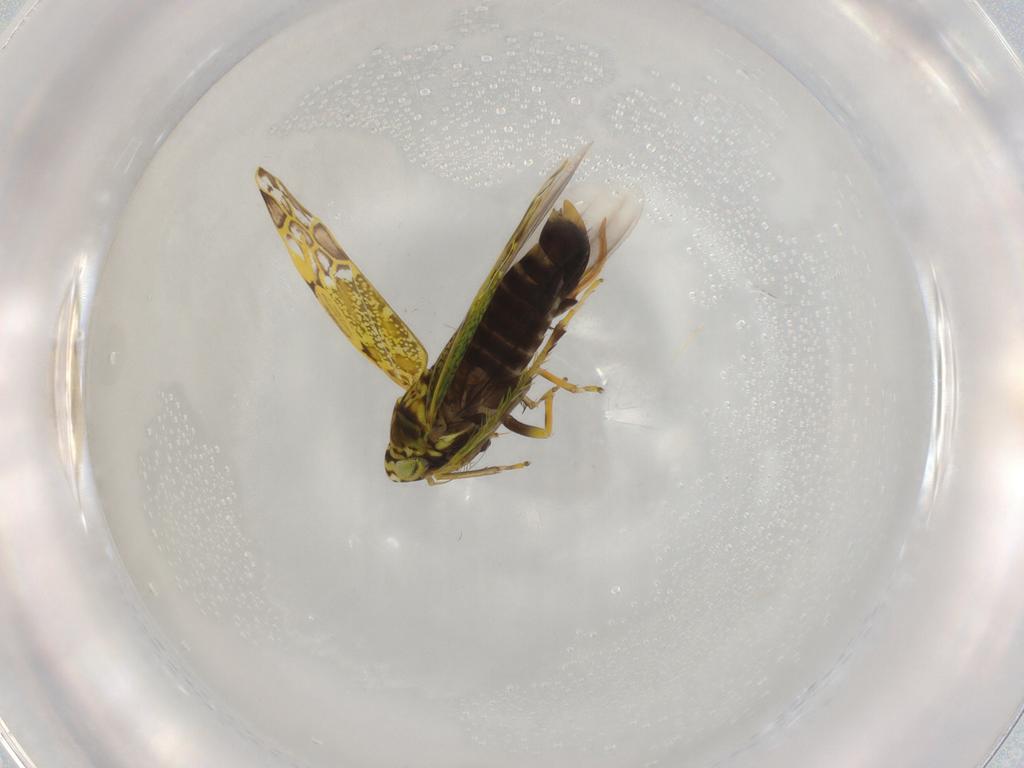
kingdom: Animalia
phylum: Arthropoda
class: Insecta
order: Hemiptera
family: Cicadellidae
